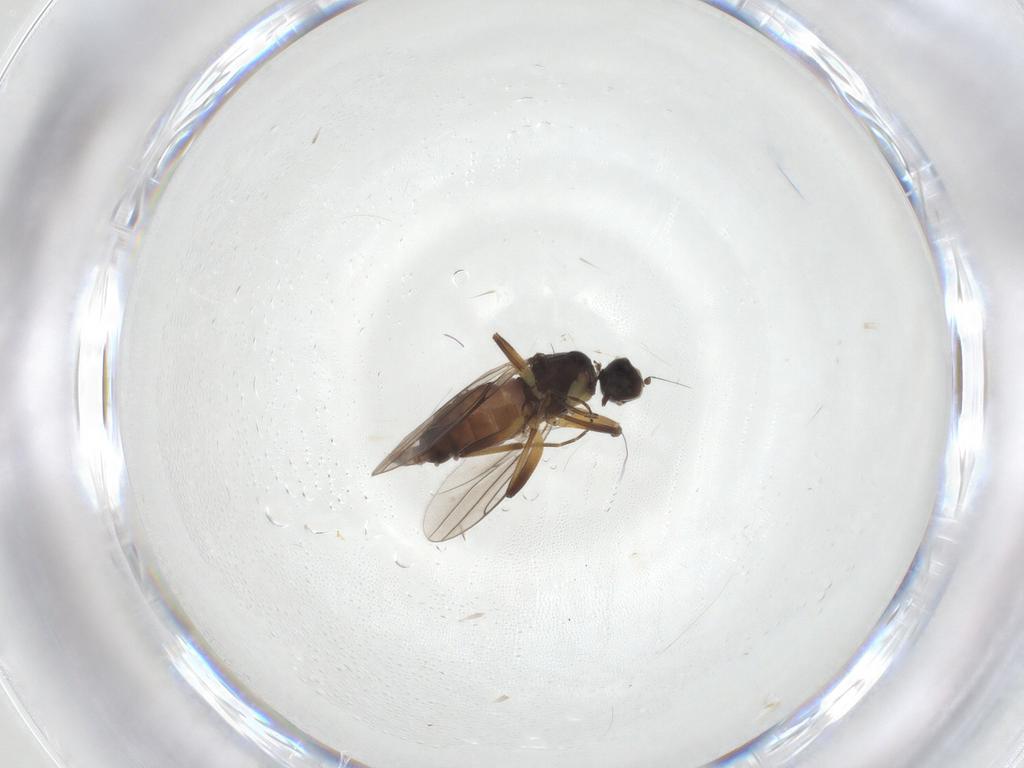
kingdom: Animalia
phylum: Arthropoda
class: Insecta
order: Diptera
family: Hybotidae
